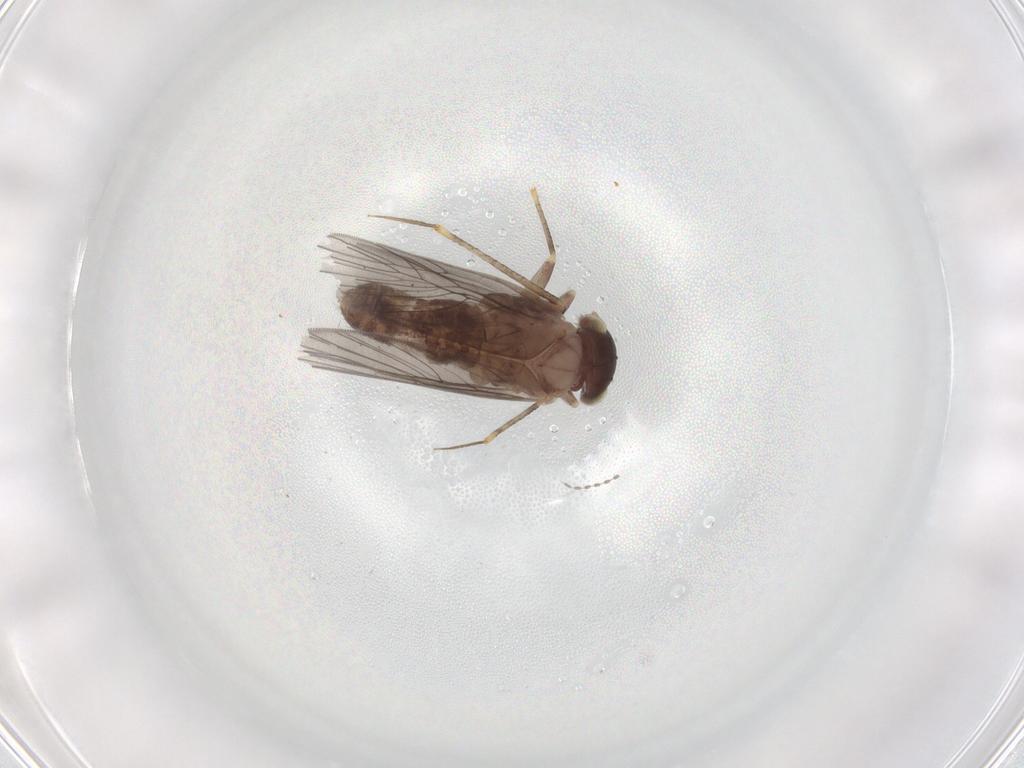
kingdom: Animalia
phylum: Arthropoda
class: Insecta
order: Psocodea
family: Lepidopsocidae
